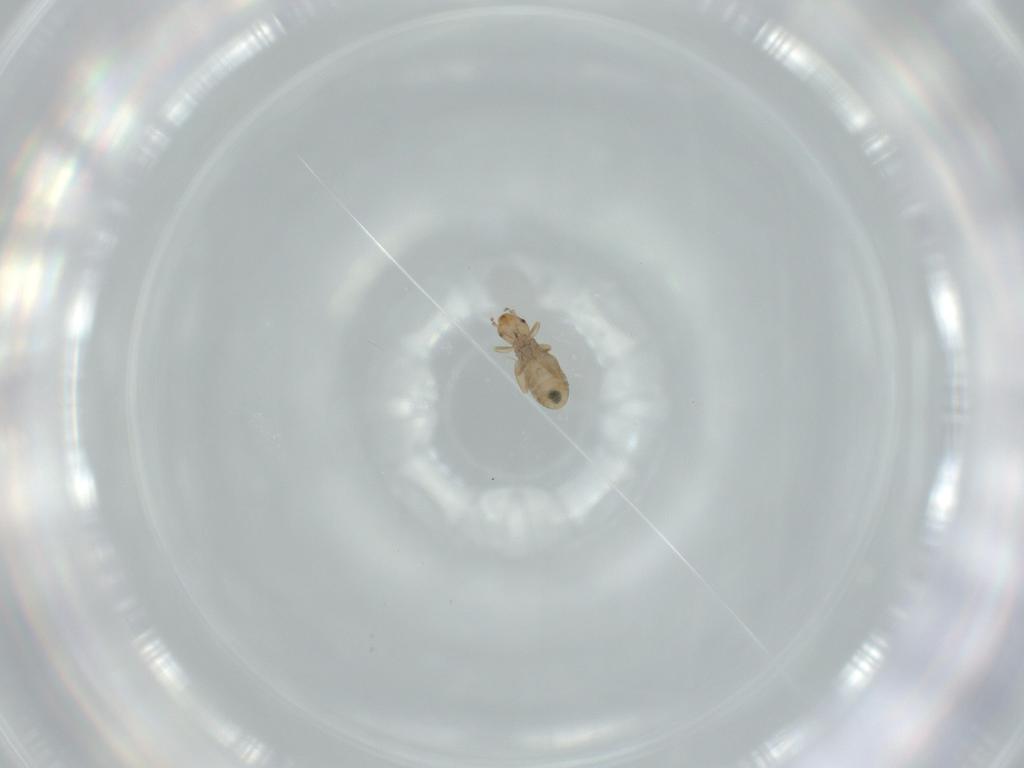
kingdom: Animalia
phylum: Arthropoda
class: Insecta
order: Psocodea
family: Liposcelididae
